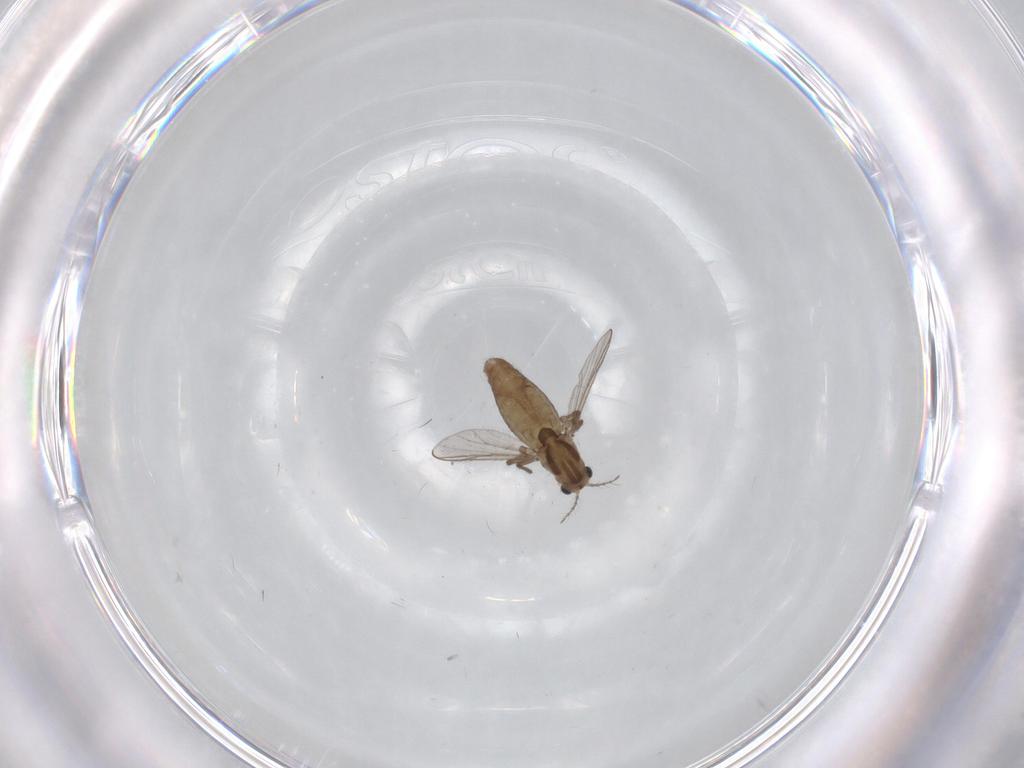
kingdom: Animalia
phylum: Arthropoda
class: Insecta
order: Diptera
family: Chironomidae
